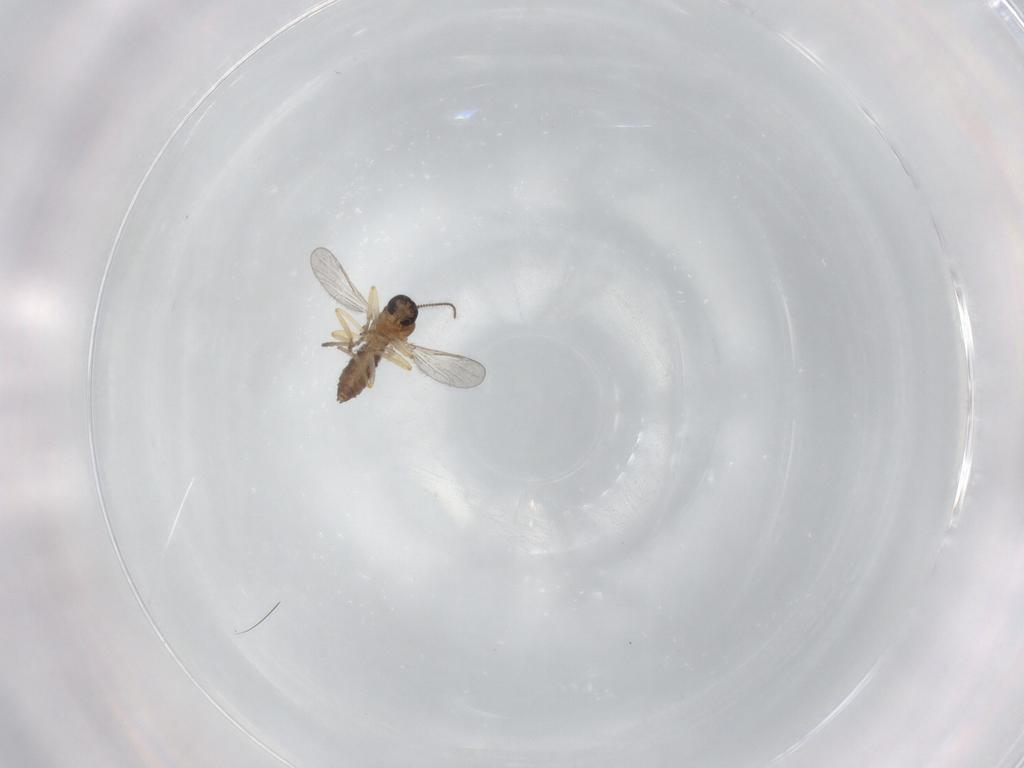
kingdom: Animalia
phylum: Arthropoda
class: Insecta
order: Diptera
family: Ceratopogonidae
